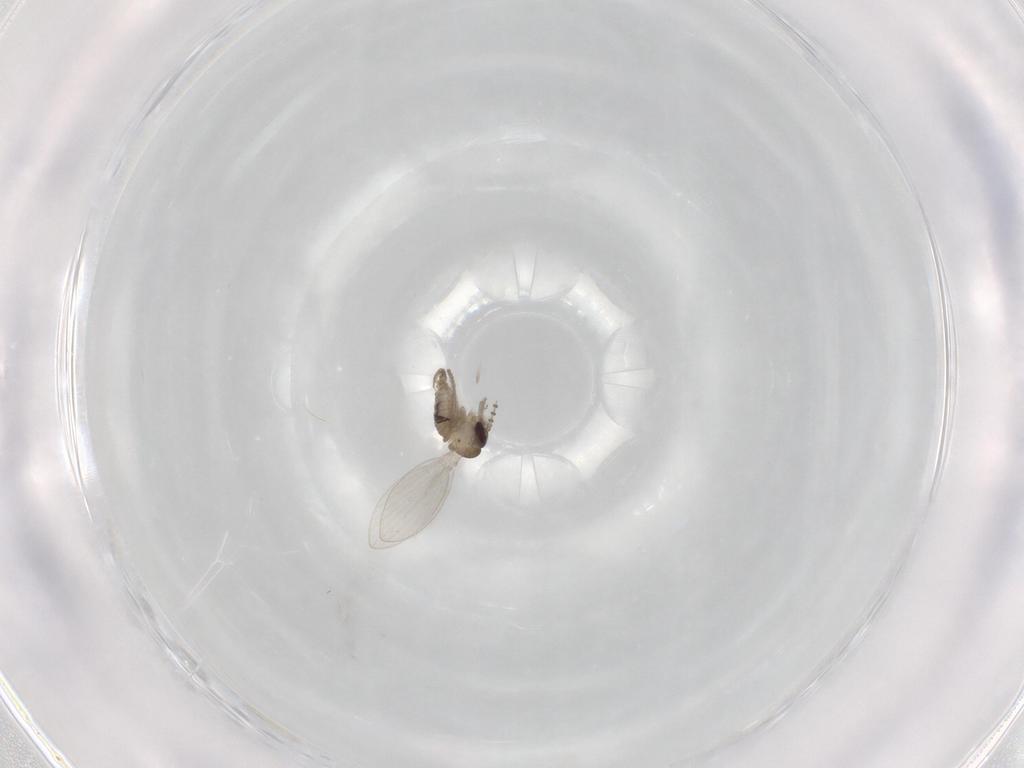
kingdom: Animalia
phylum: Arthropoda
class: Insecta
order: Diptera
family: Psychodidae
